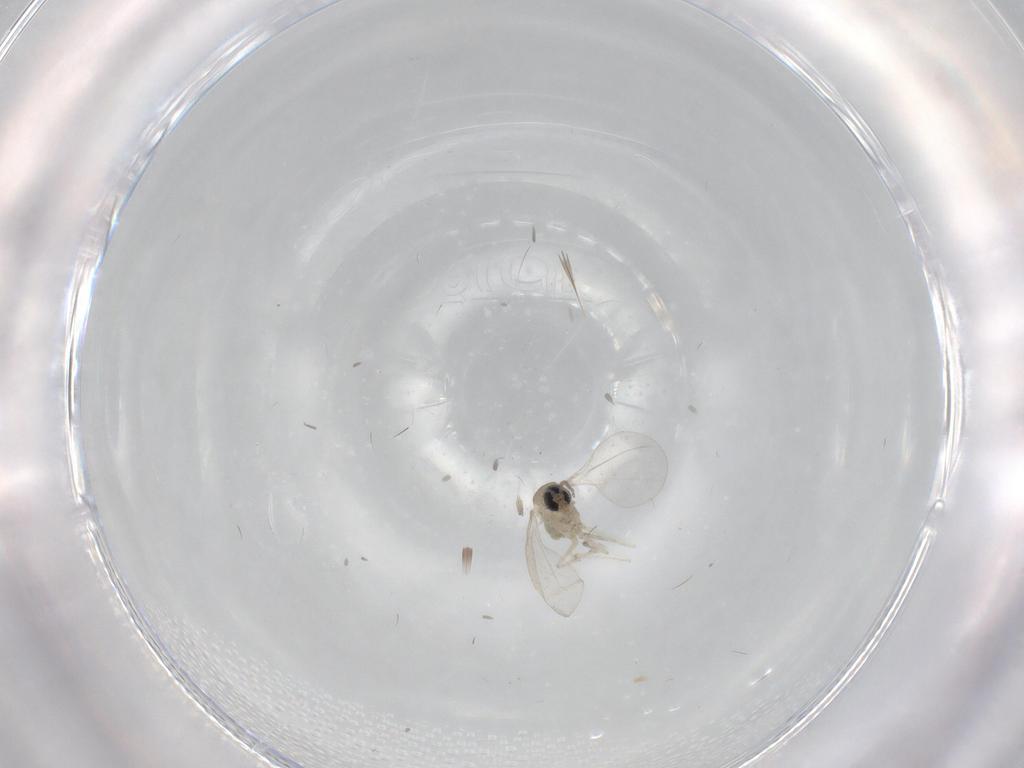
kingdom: Animalia
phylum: Arthropoda
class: Insecta
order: Diptera
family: Cecidomyiidae
